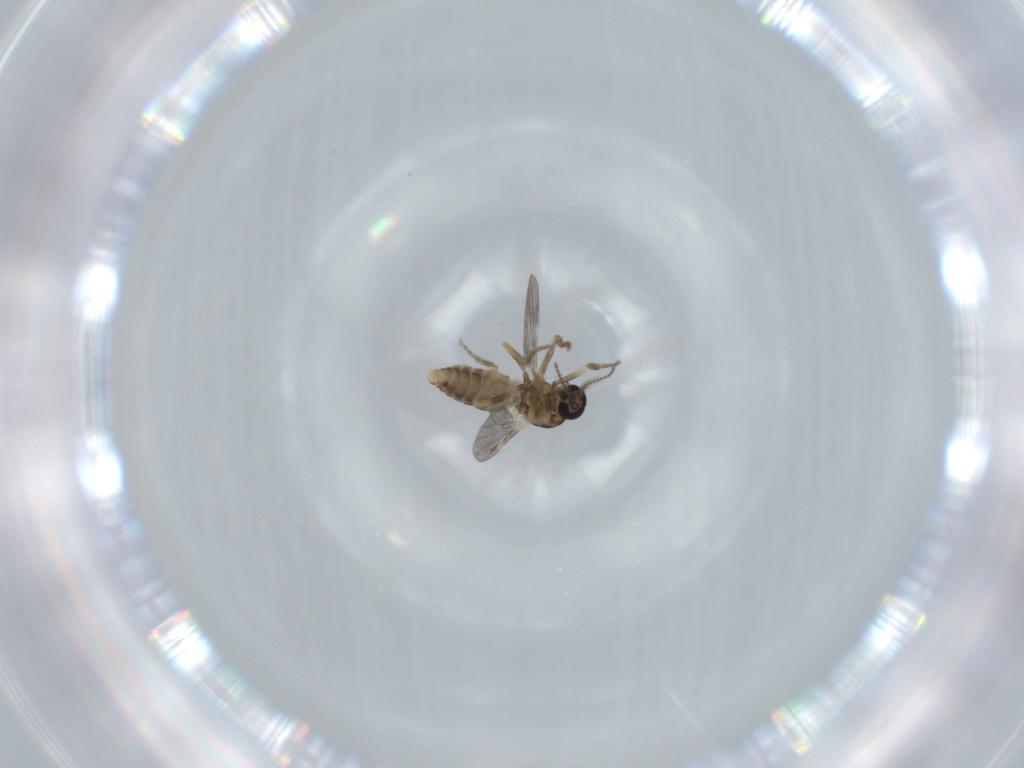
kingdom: Animalia
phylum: Arthropoda
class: Insecta
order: Diptera
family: Ceratopogonidae
